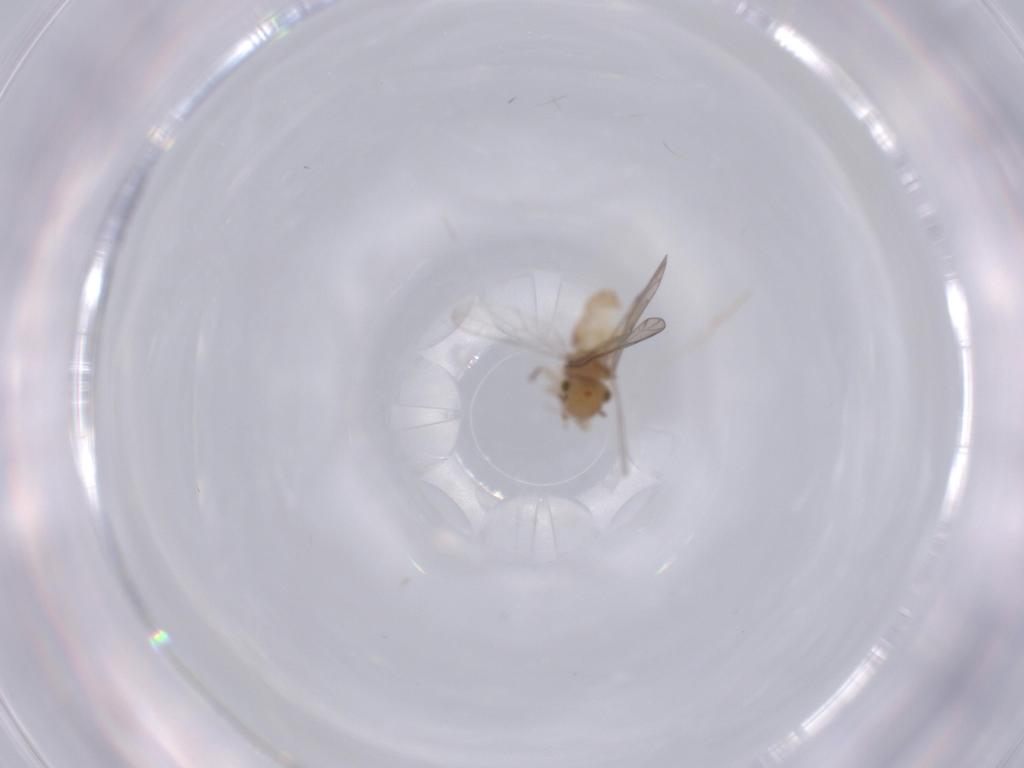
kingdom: Animalia
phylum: Arthropoda
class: Insecta
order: Psocodea
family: Ectopsocidae
